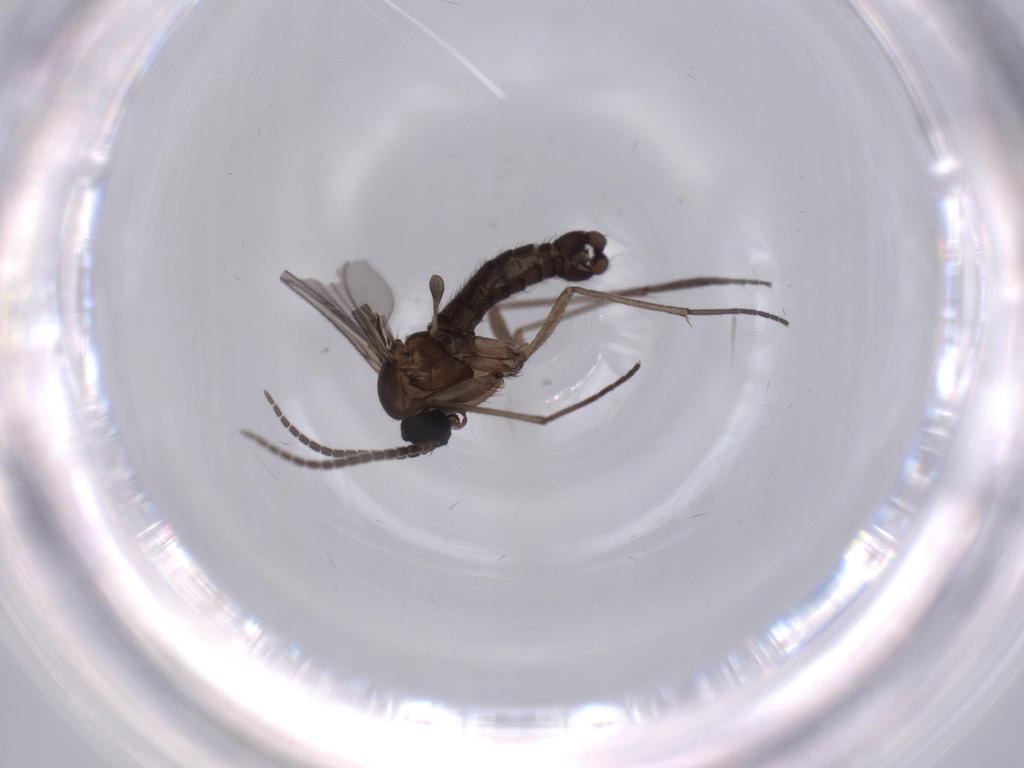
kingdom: Animalia
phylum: Arthropoda
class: Insecta
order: Diptera
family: Sciaridae
